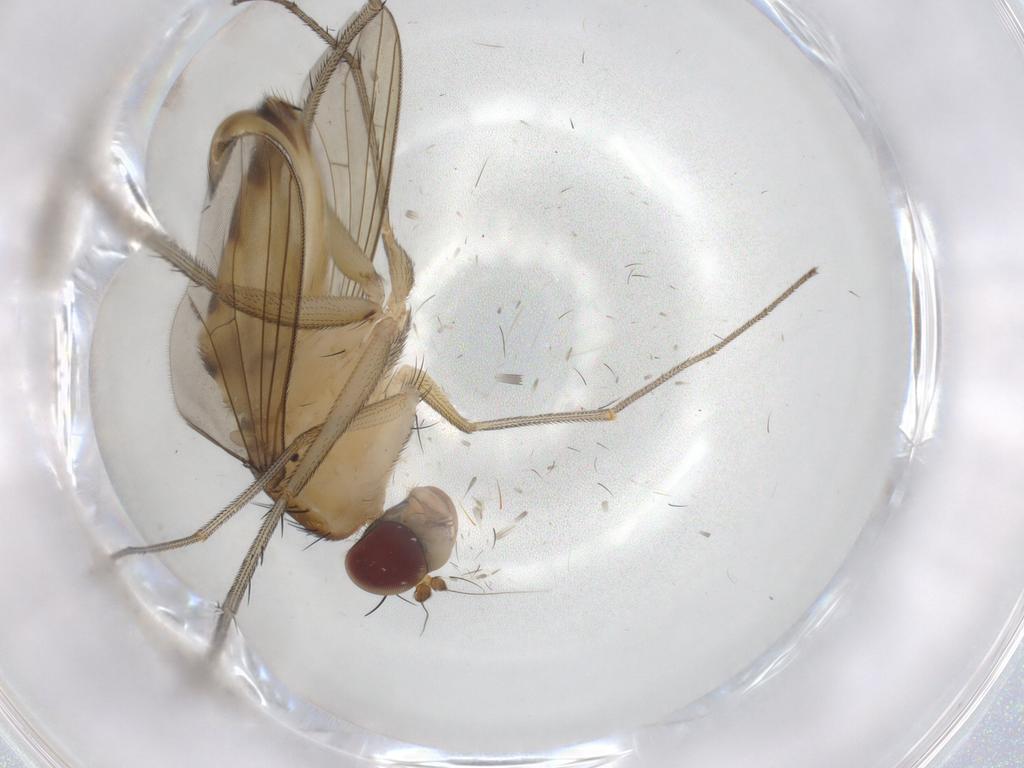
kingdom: Animalia
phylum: Arthropoda
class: Insecta
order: Diptera
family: Sciaridae
